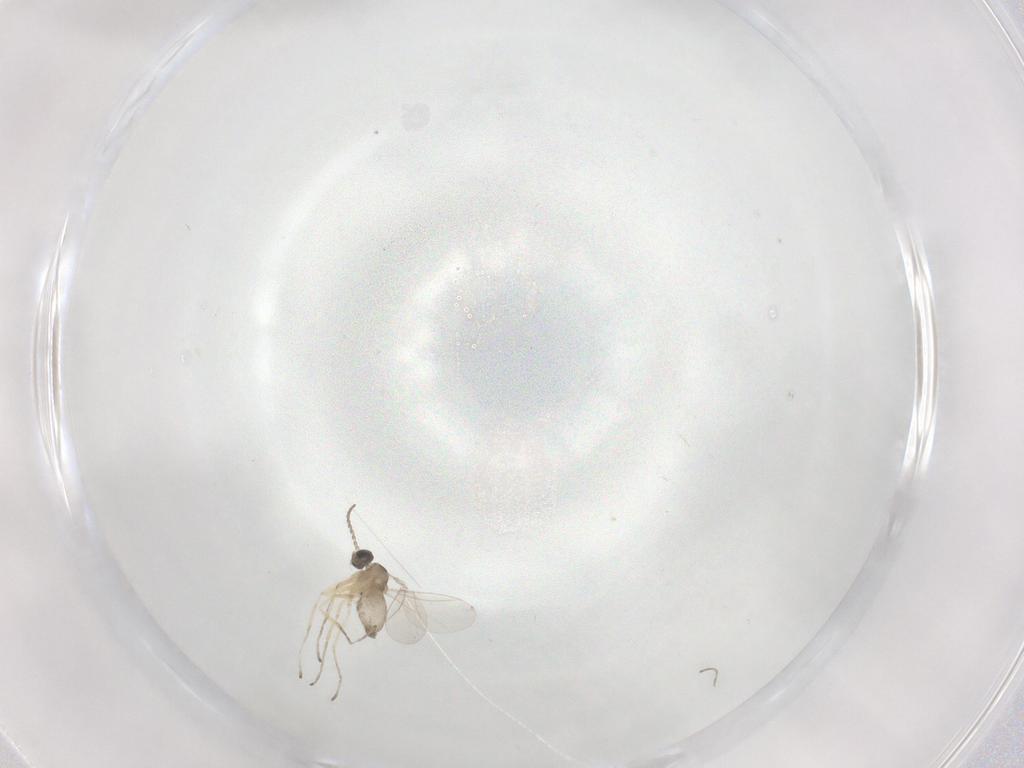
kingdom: Animalia
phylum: Arthropoda
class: Insecta
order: Diptera
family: Cecidomyiidae
